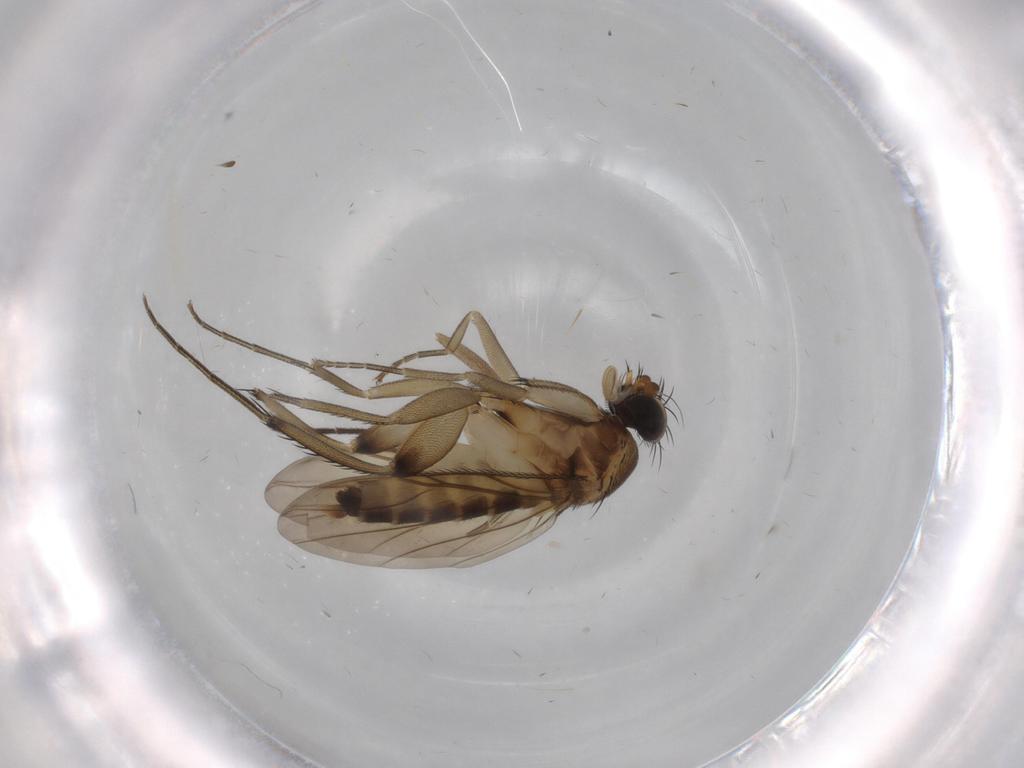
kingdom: Animalia
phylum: Arthropoda
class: Insecta
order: Diptera
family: Phoridae
